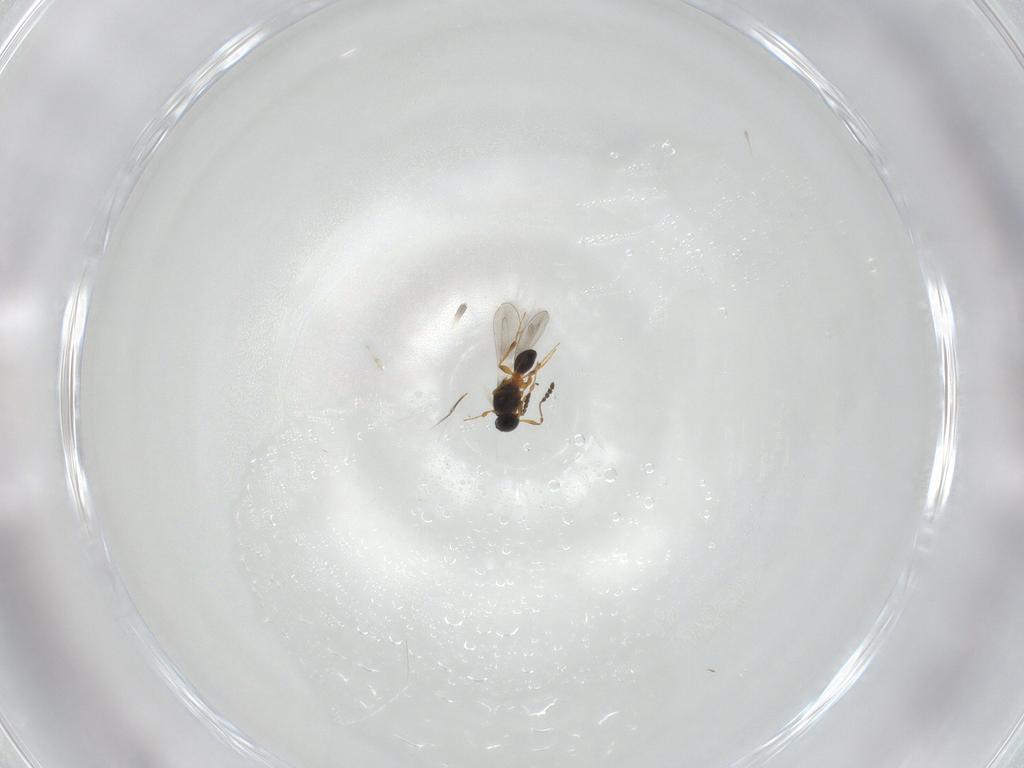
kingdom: Animalia
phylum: Arthropoda
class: Insecta
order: Hymenoptera
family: Platygastridae
